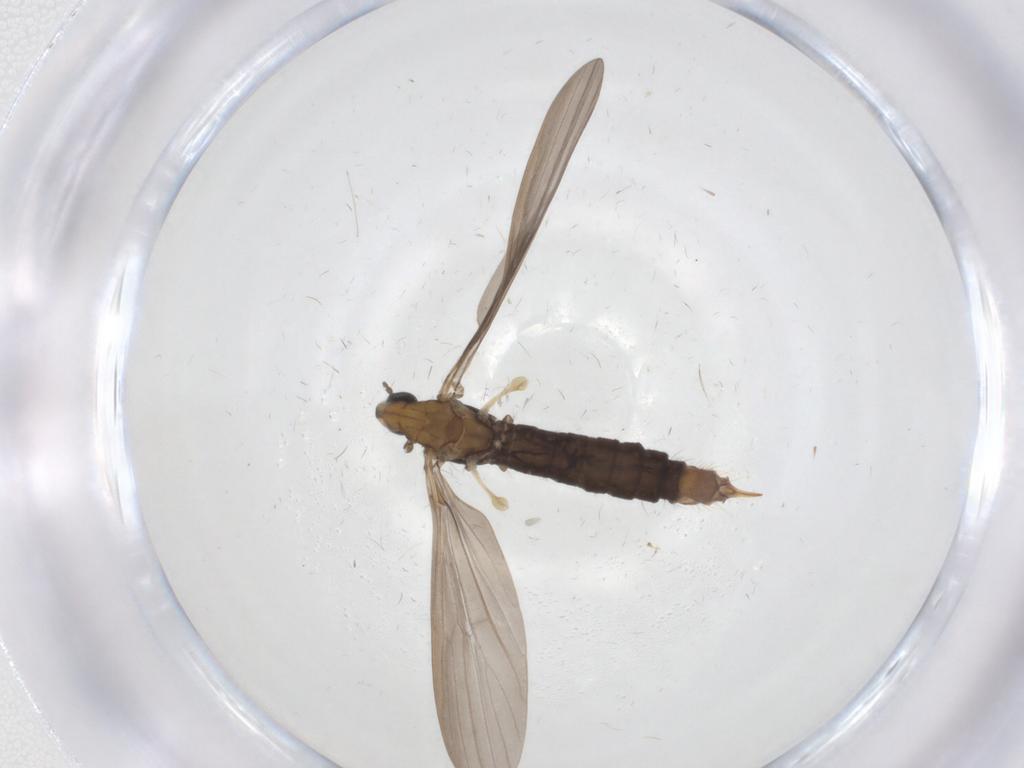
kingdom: Animalia
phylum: Arthropoda
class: Insecta
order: Diptera
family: Limoniidae
